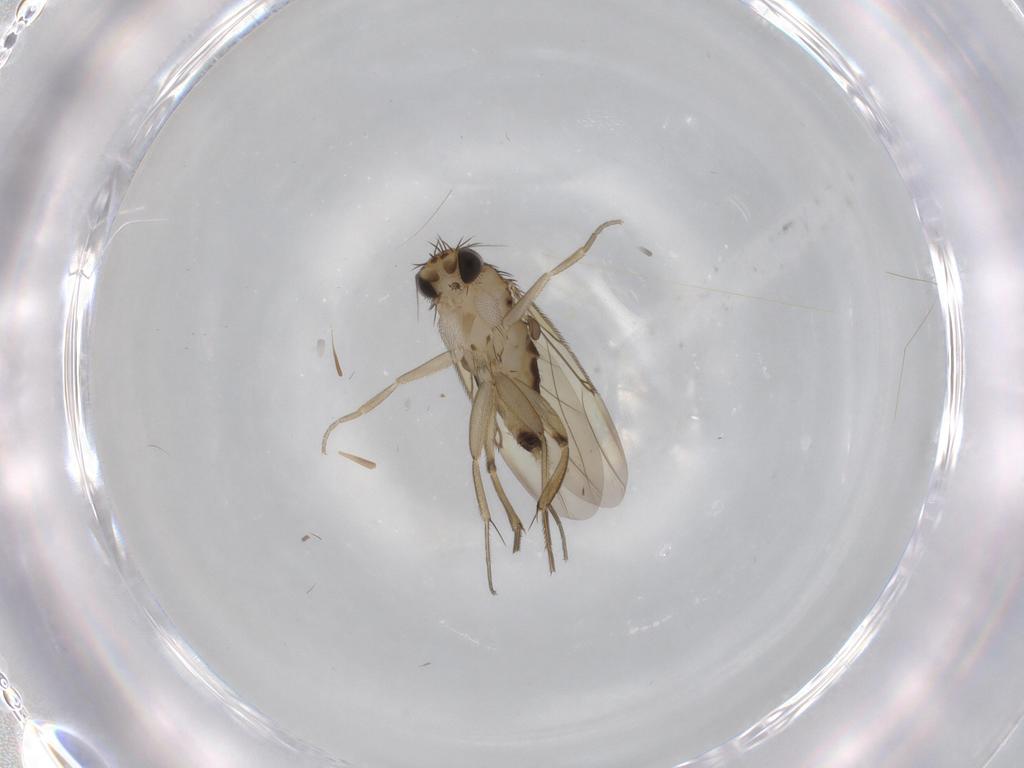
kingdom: Animalia
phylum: Arthropoda
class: Insecta
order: Diptera
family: Phoridae
